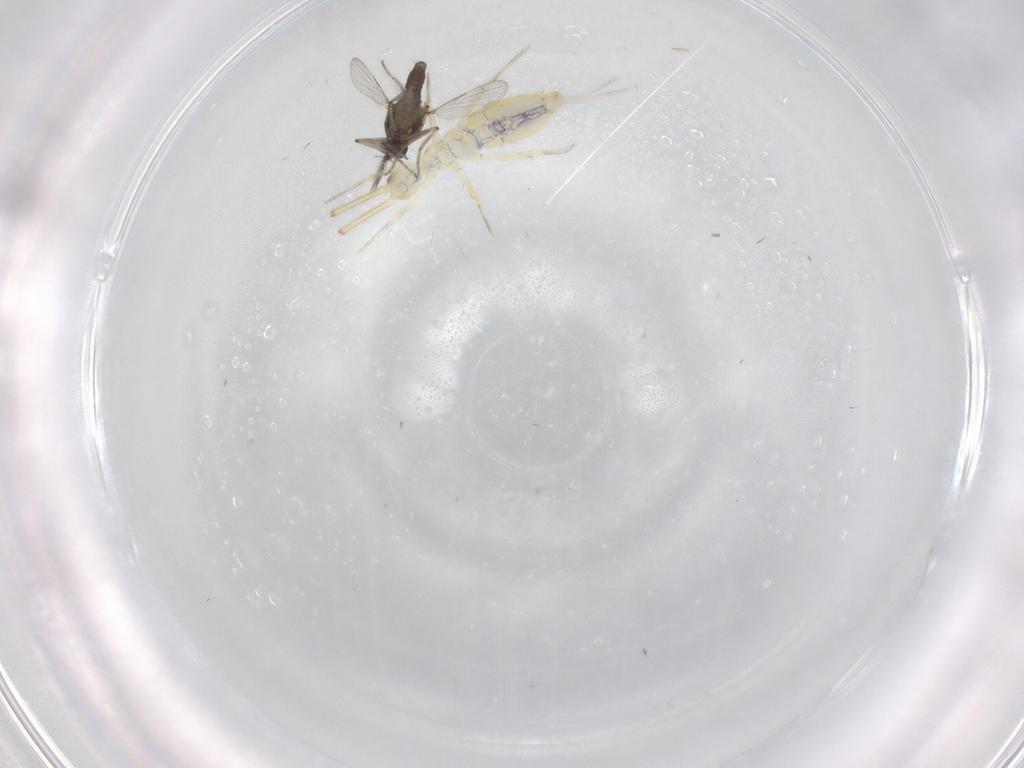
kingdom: Animalia
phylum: Arthropoda
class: Insecta
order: Diptera
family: Ceratopogonidae
